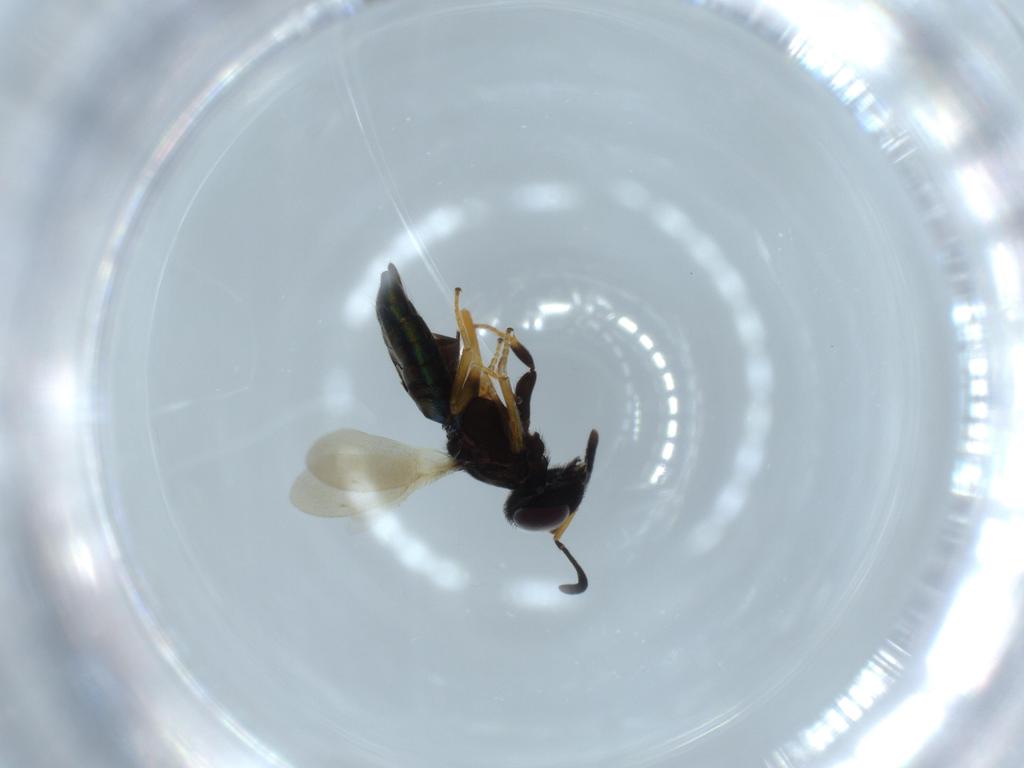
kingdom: Animalia
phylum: Arthropoda
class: Insecta
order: Hymenoptera
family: Eupelmidae
